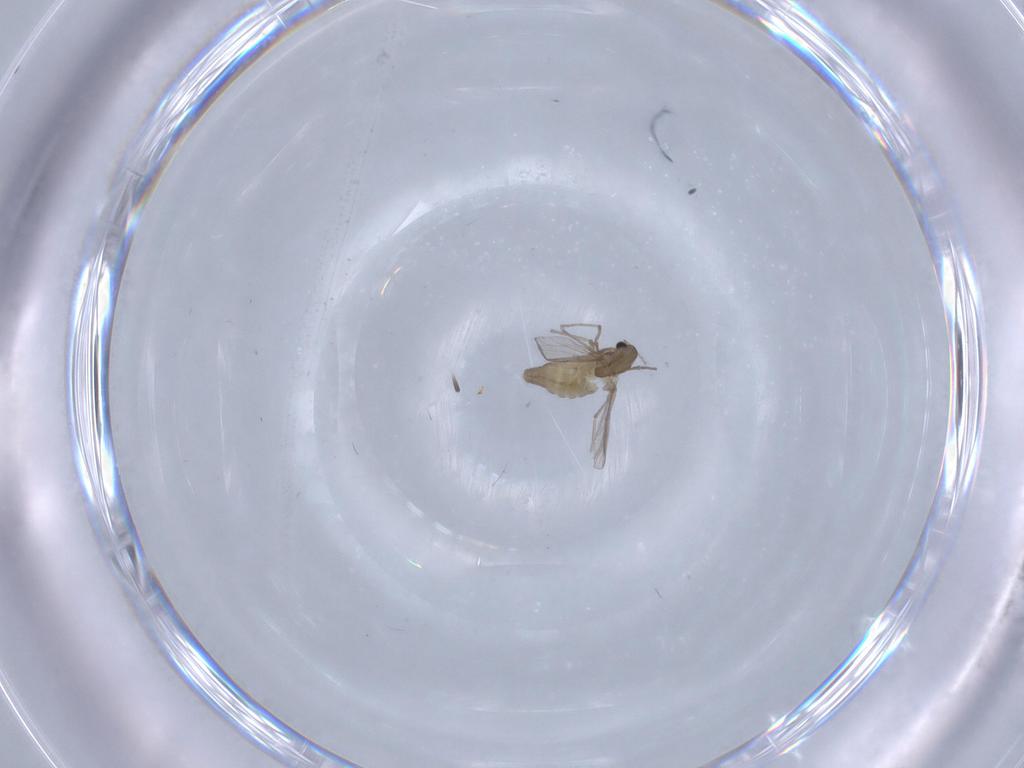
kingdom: Animalia
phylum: Arthropoda
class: Insecta
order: Diptera
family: Chironomidae
